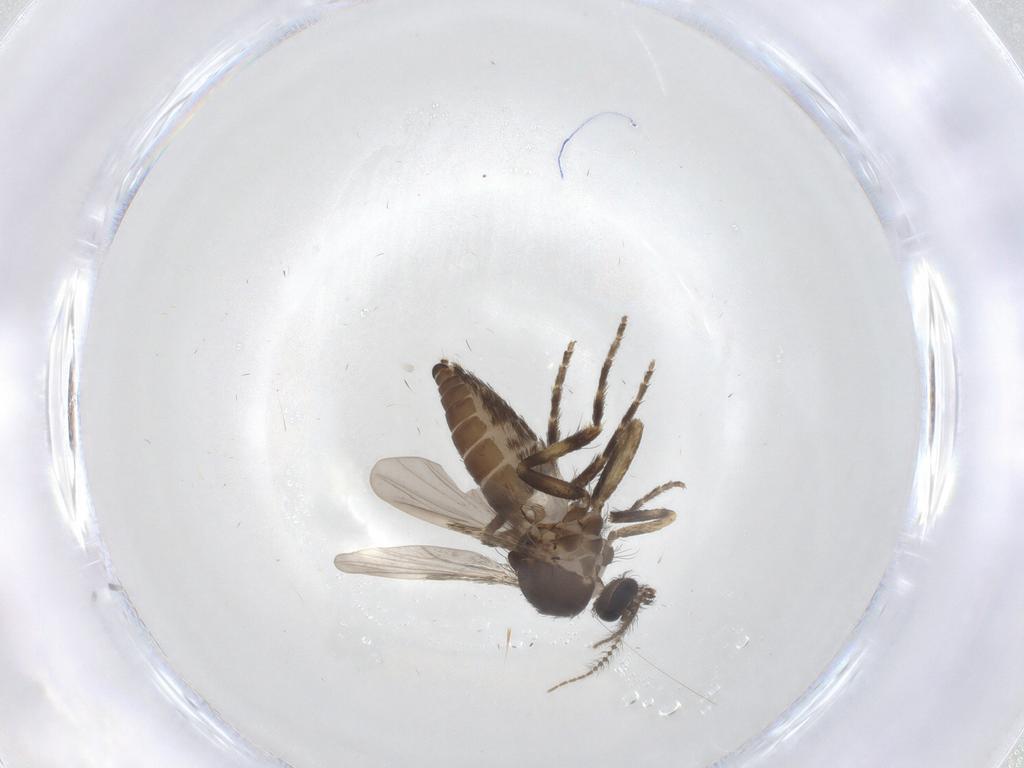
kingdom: Animalia
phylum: Arthropoda
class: Insecta
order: Diptera
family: Ceratopogonidae
